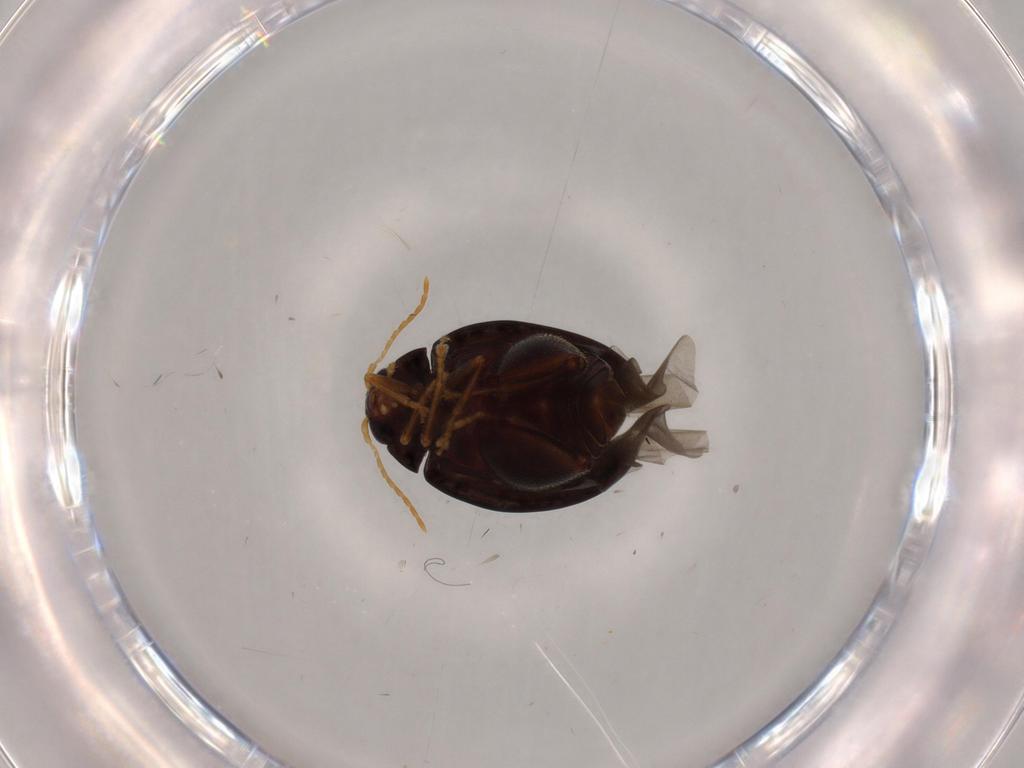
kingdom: Animalia
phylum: Arthropoda
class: Insecta
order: Coleoptera
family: Chrysomelidae
